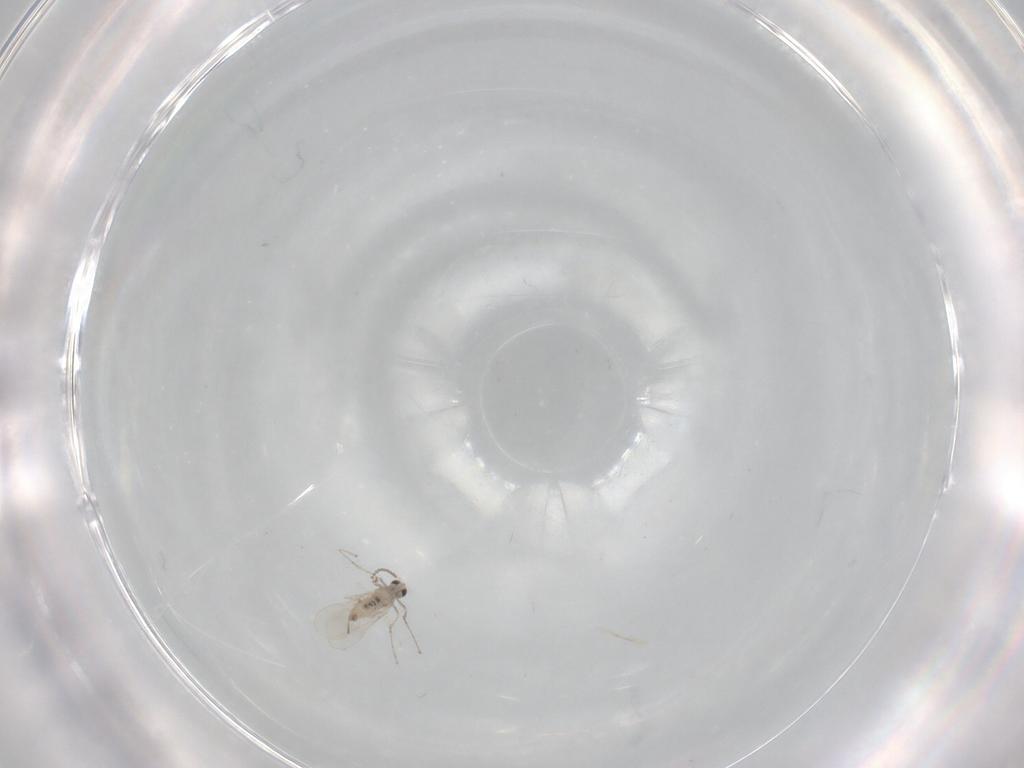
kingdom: Animalia
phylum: Arthropoda
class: Insecta
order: Diptera
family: Cecidomyiidae
